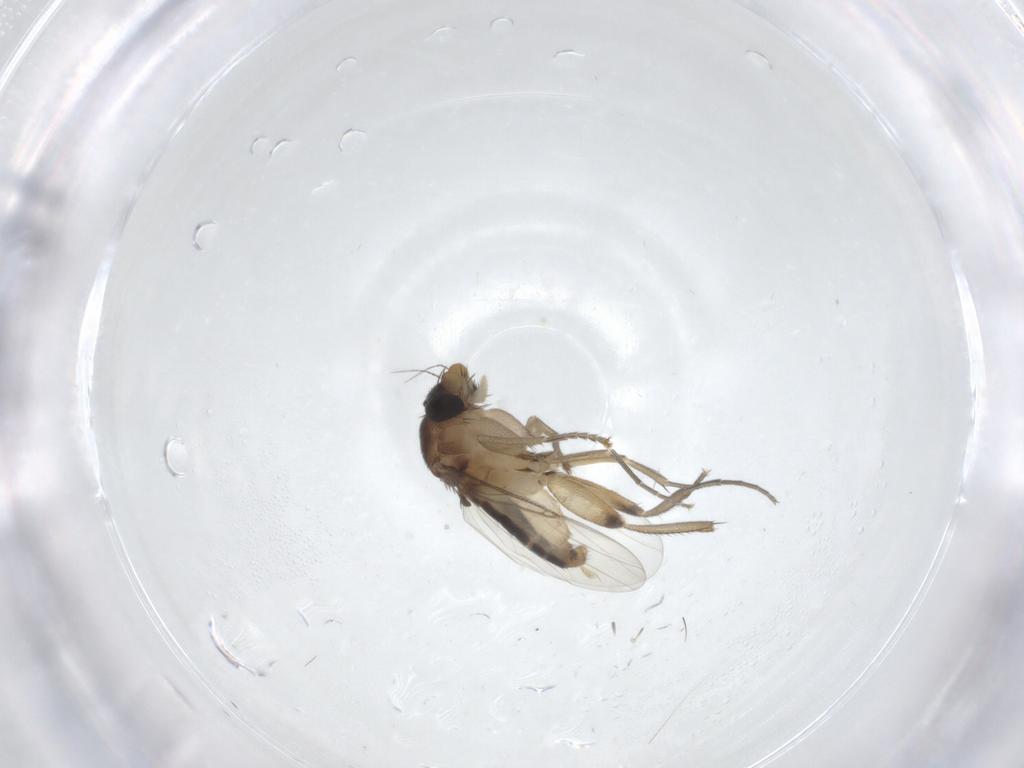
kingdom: Animalia
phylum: Arthropoda
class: Insecta
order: Diptera
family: Phoridae
